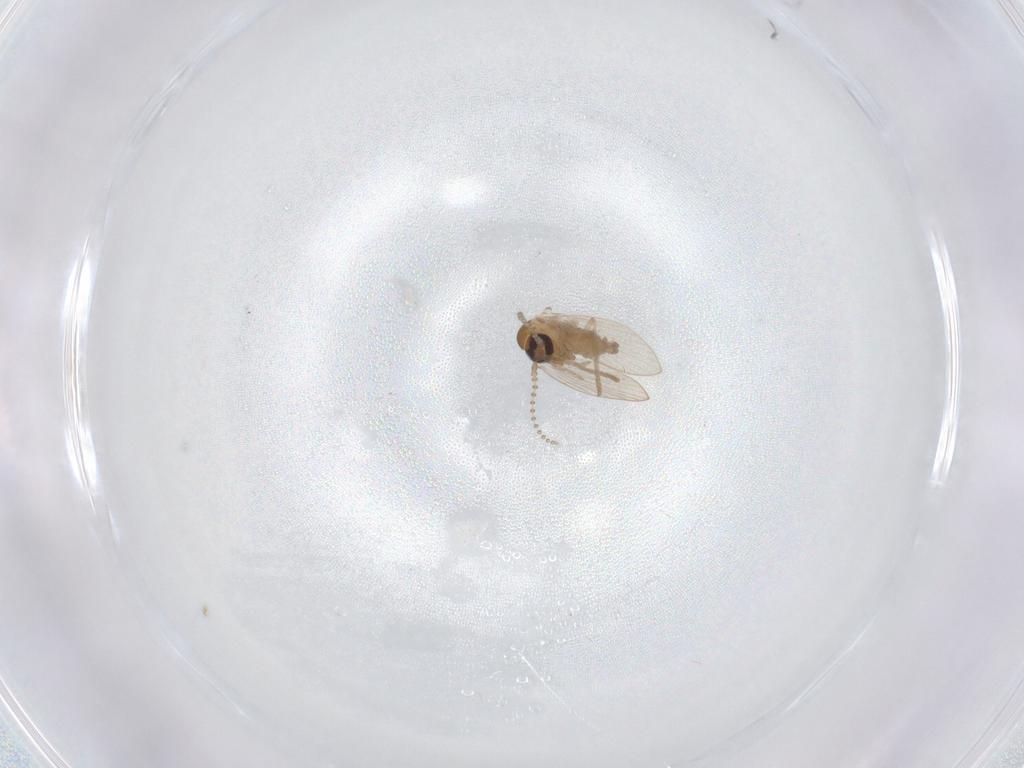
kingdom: Animalia
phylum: Arthropoda
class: Insecta
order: Diptera
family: Psychodidae
